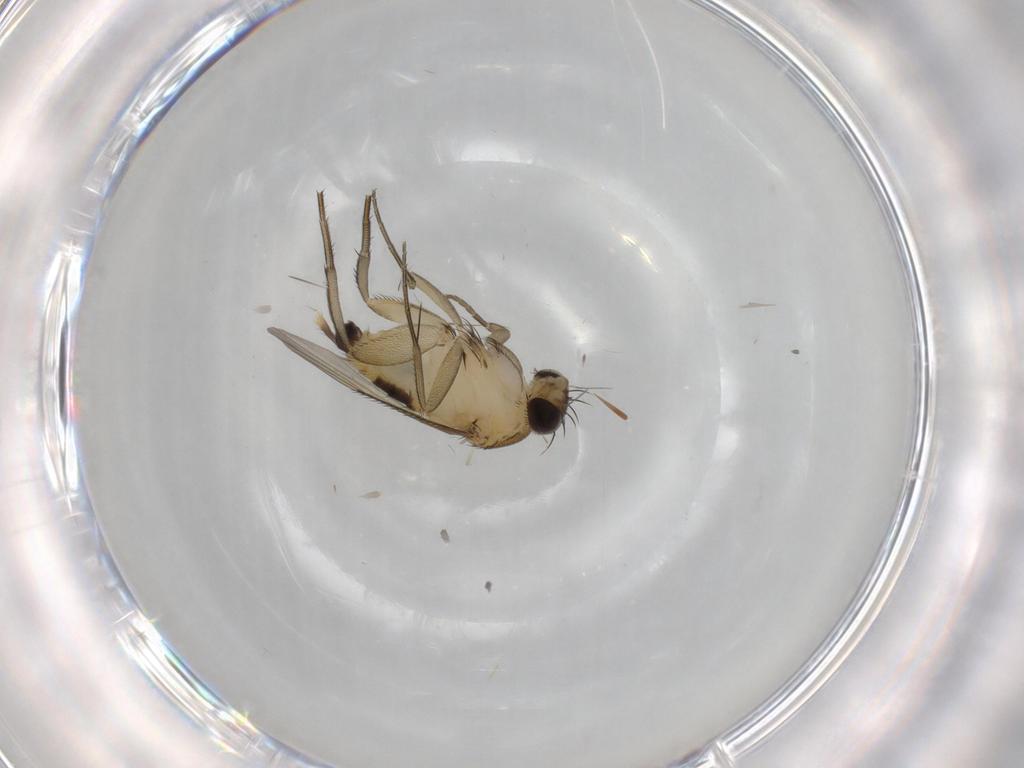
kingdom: Animalia
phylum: Arthropoda
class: Insecta
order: Diptera
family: Phoridae
